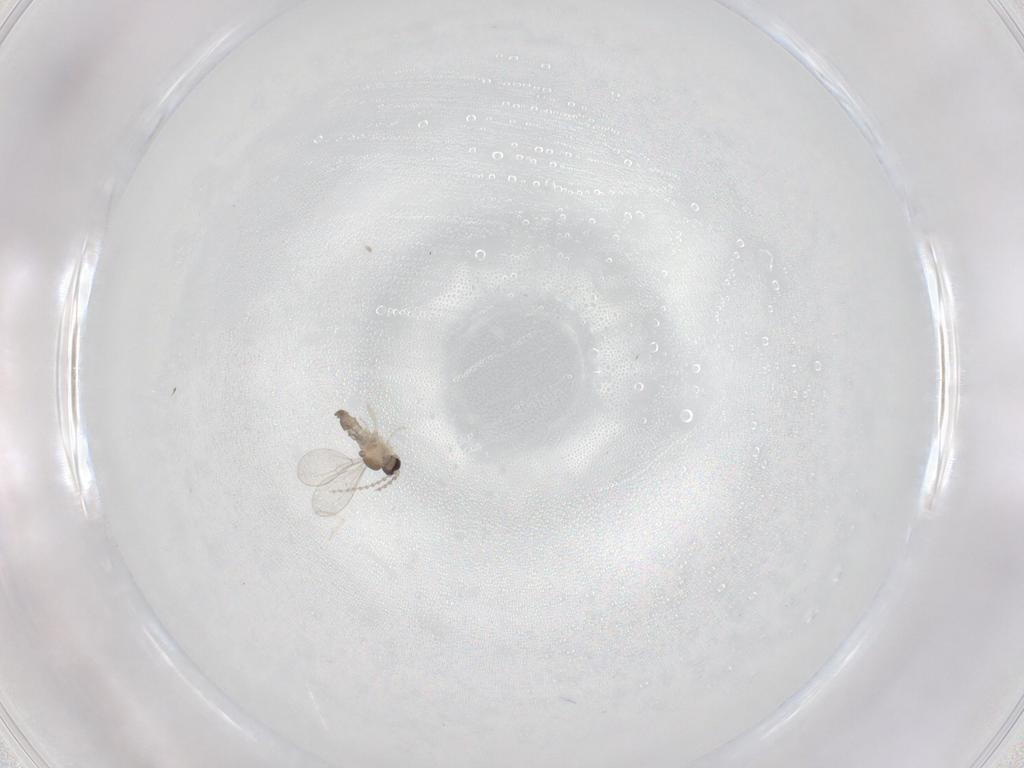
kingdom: Animalia
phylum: Arthropoda
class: Insecta
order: Diptera
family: Cecidomyiidae
